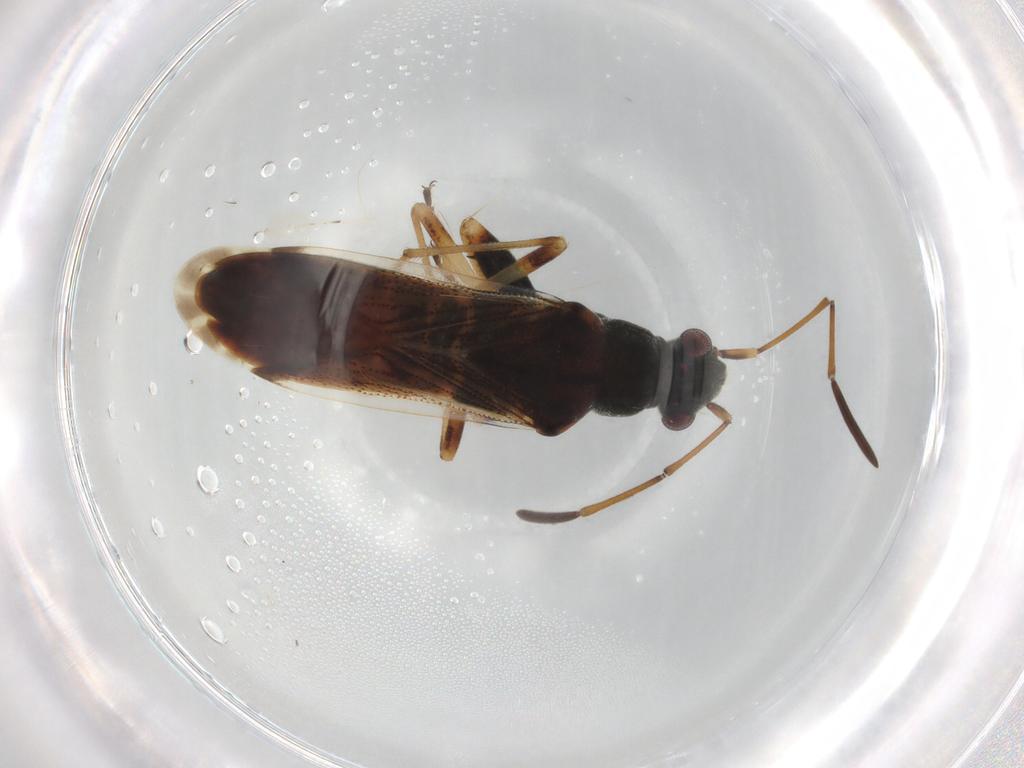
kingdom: Animalia
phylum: Arthropoda
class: Insecta
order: Hemiptera
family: Rhyparochromidae
